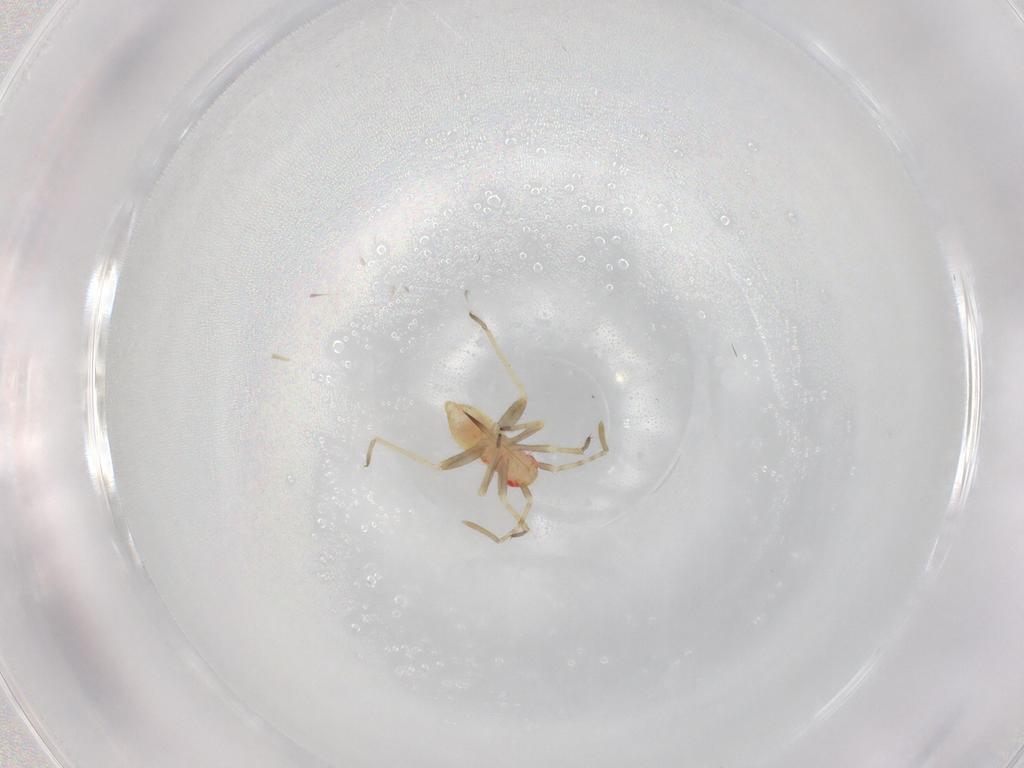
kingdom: Animalia
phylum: Arthropoda
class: Insecta
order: Hemiptera
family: Miridae
